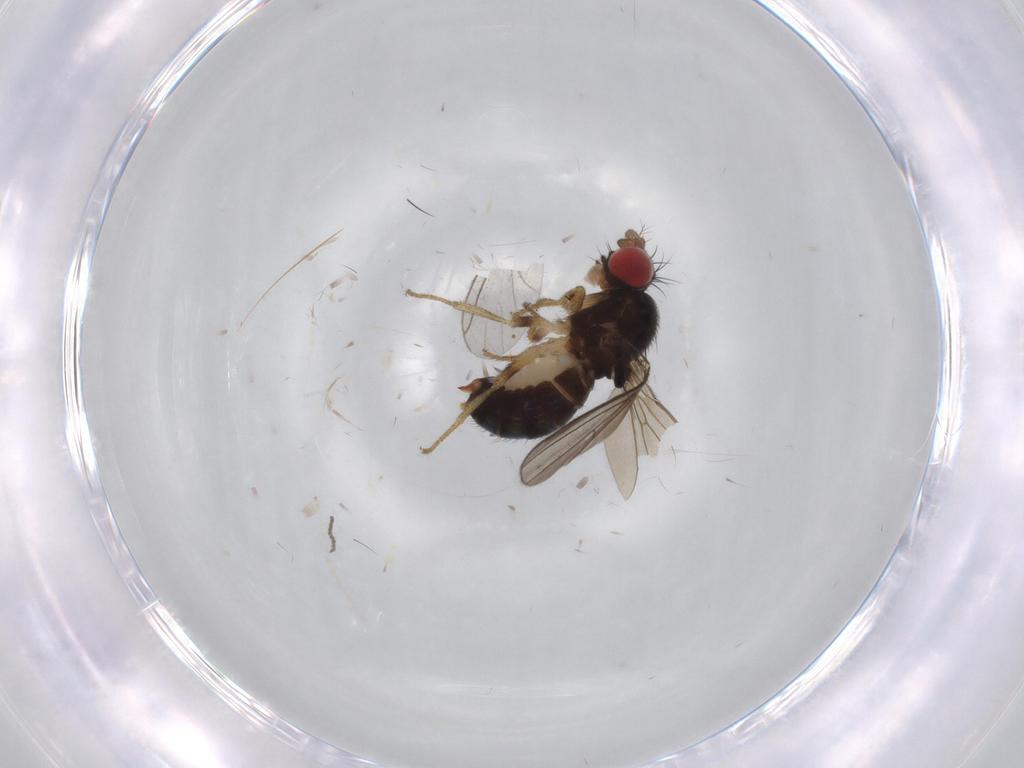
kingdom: Animalia
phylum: Arthropoda
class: Insecta
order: Diptera
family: Drosophilidae
